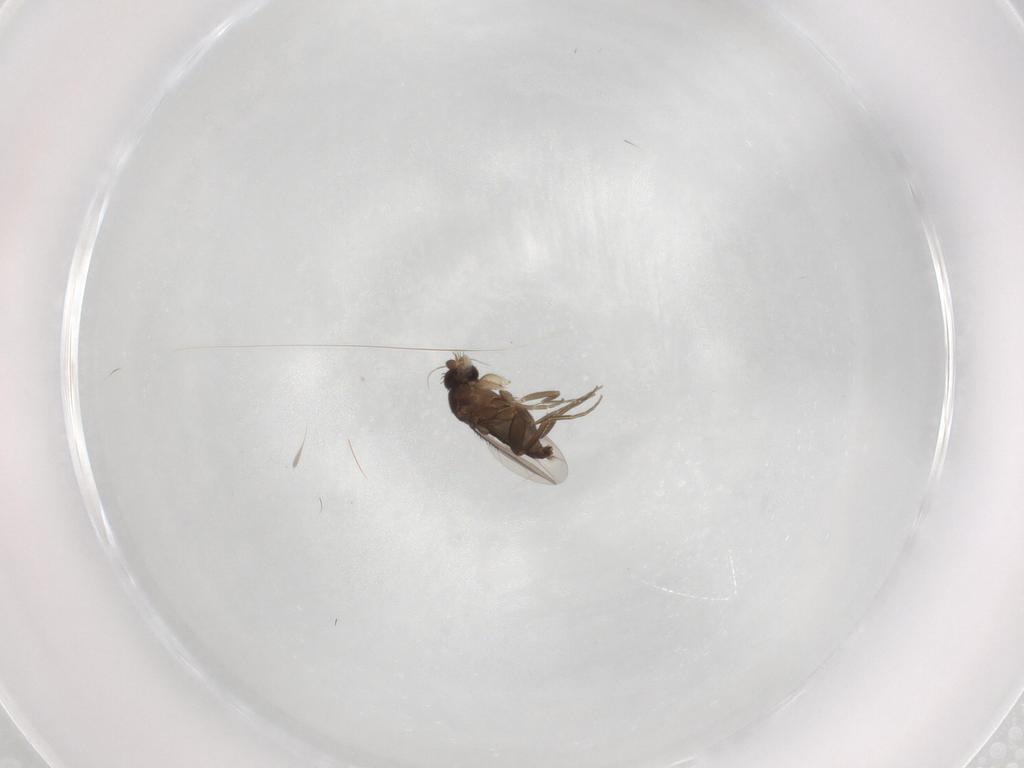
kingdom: Animalia
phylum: Arthropoda
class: Insecta
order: Diptera
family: Phoridae
